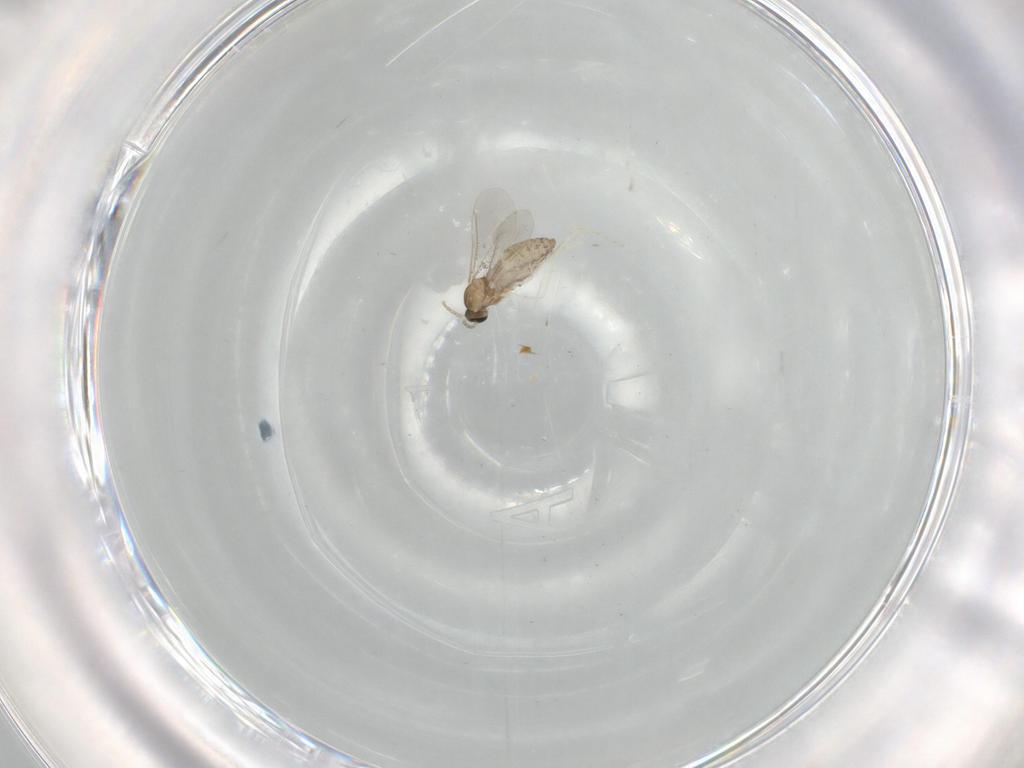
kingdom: Animalia
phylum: Arthropoda
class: Insecta
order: Diptera
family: Cecidomyiidae
